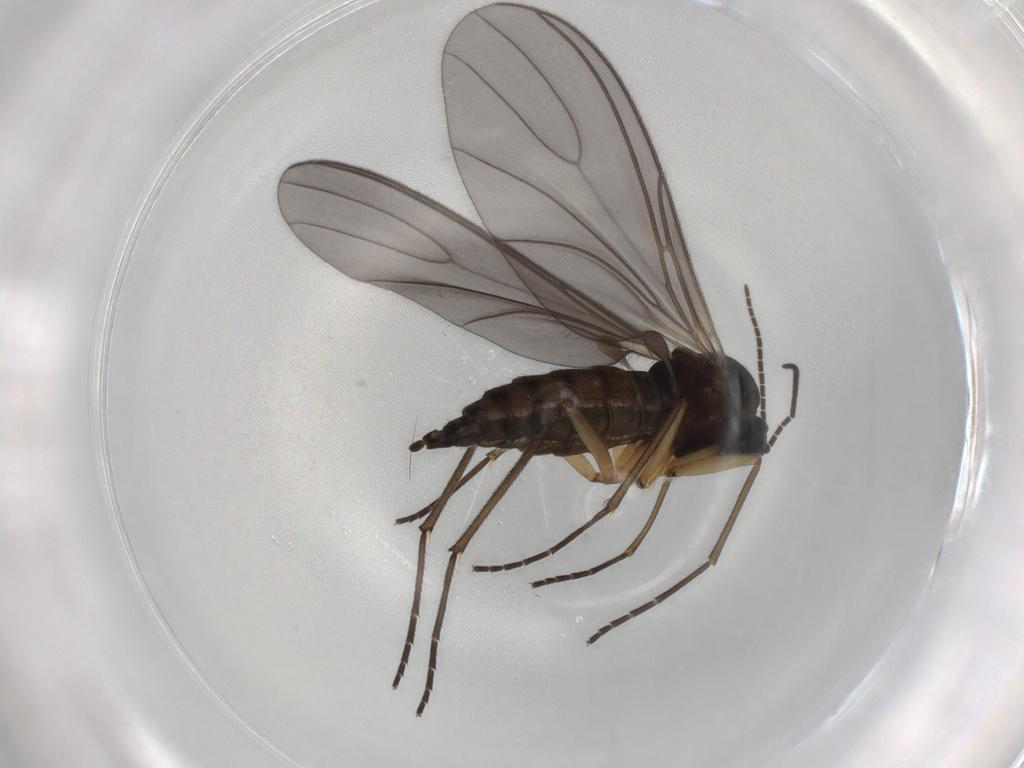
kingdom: Animalia
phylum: Arthropoda
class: Insecta
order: Diptera
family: Sciaridae
